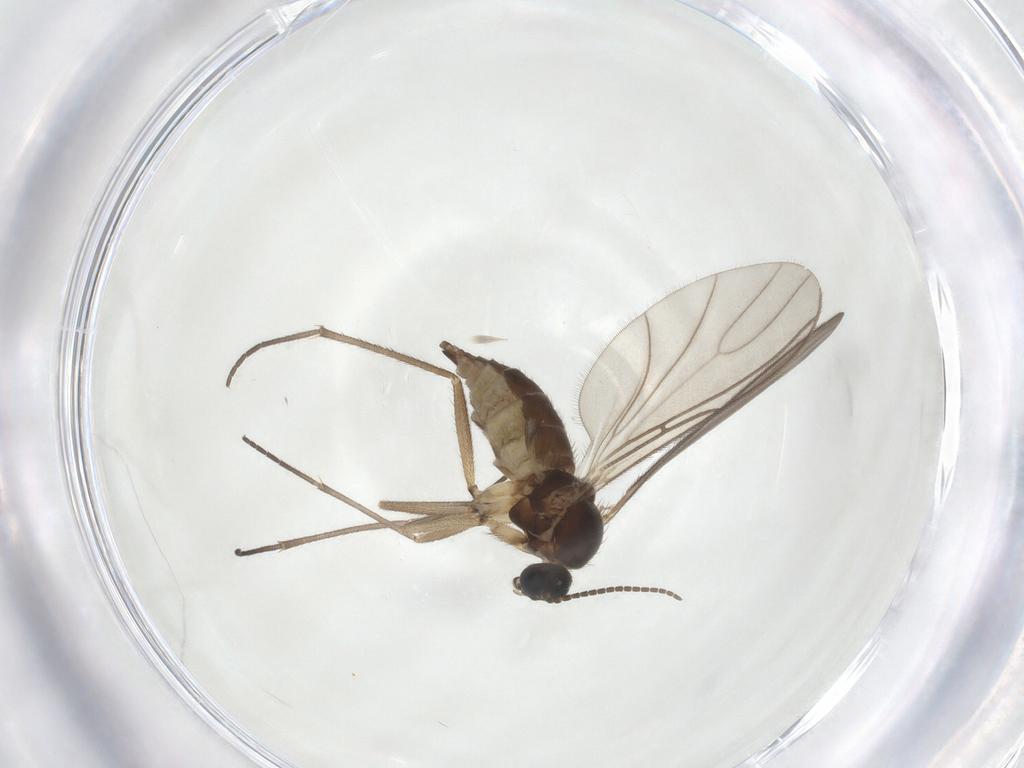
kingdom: Animalia
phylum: Arthropoda
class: Insecta
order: Diptera
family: Sciaridae
